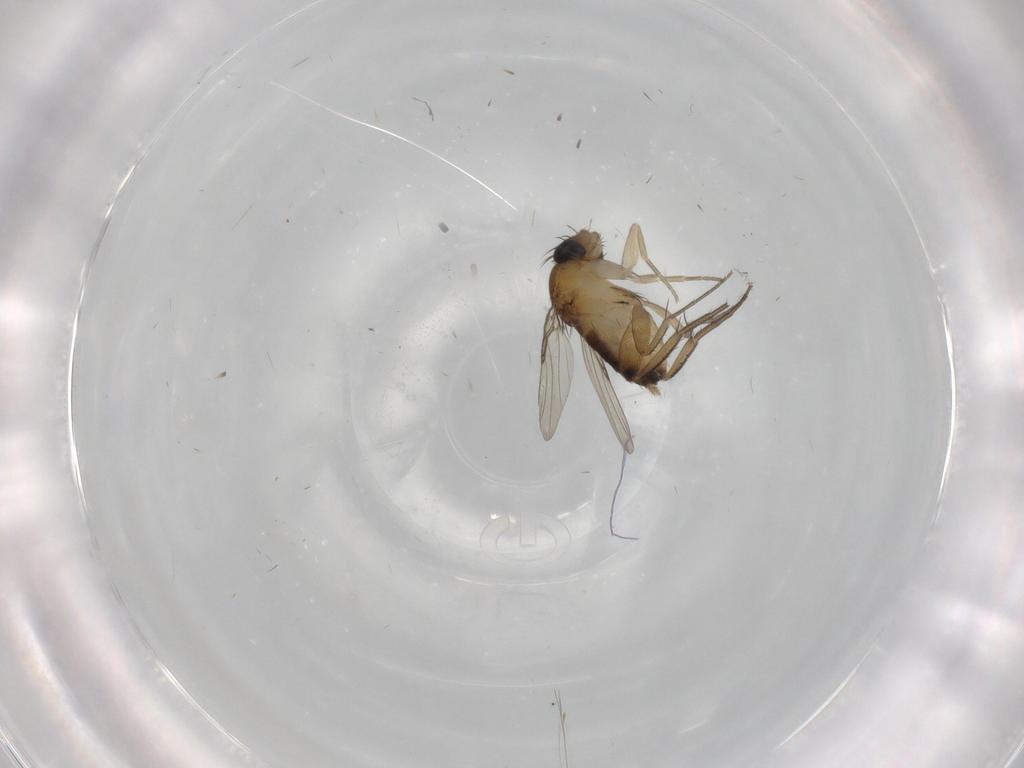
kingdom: Animalia
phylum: Arthropoda
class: Insecta
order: Diptera
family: Phoridae
